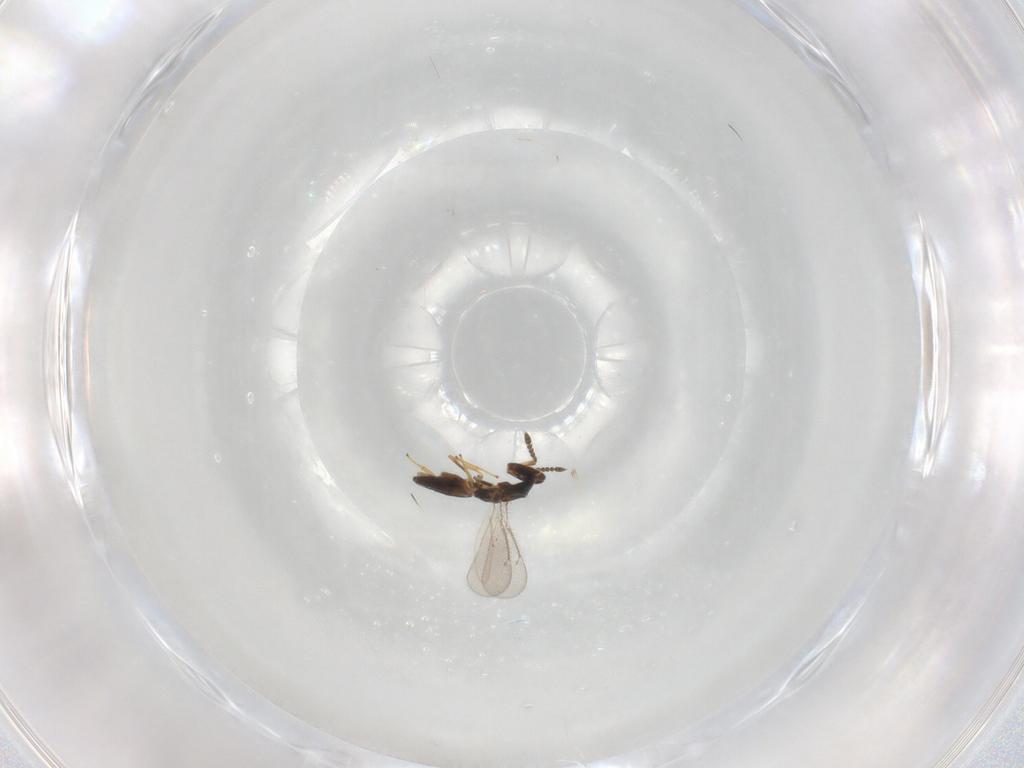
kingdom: Animalia
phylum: Arthropoda
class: Insecta
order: Hymenoptera
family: Eulophidae
